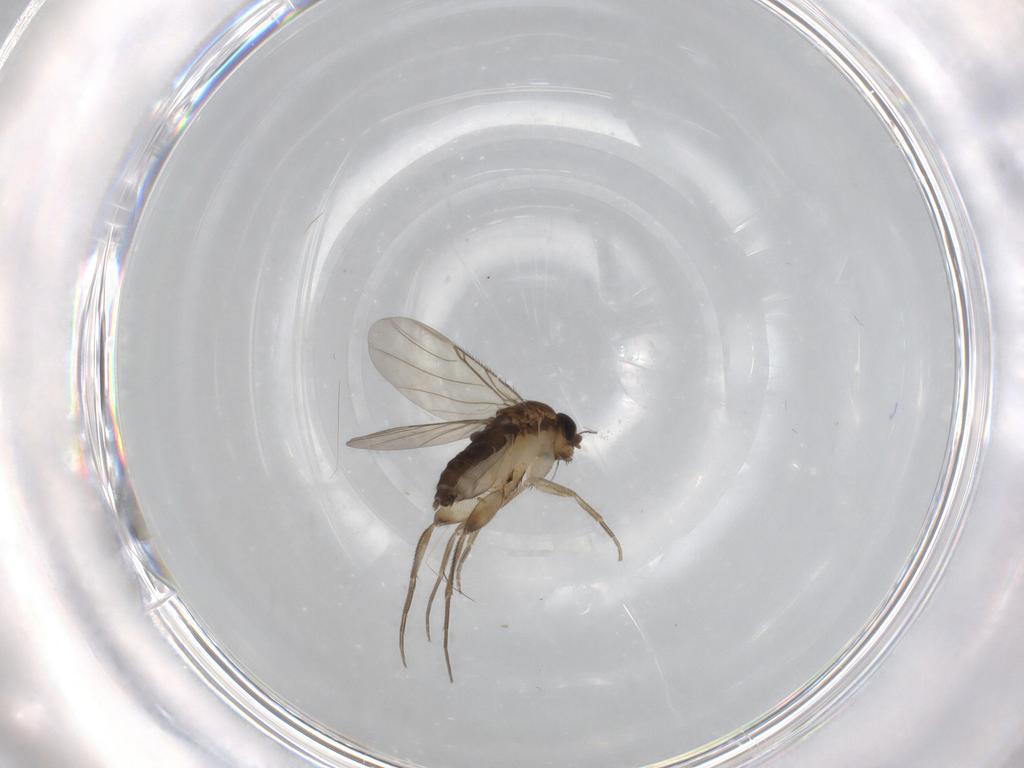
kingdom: Animalia
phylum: Arthropoda
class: Insecta
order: Diptera
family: Phoridae
